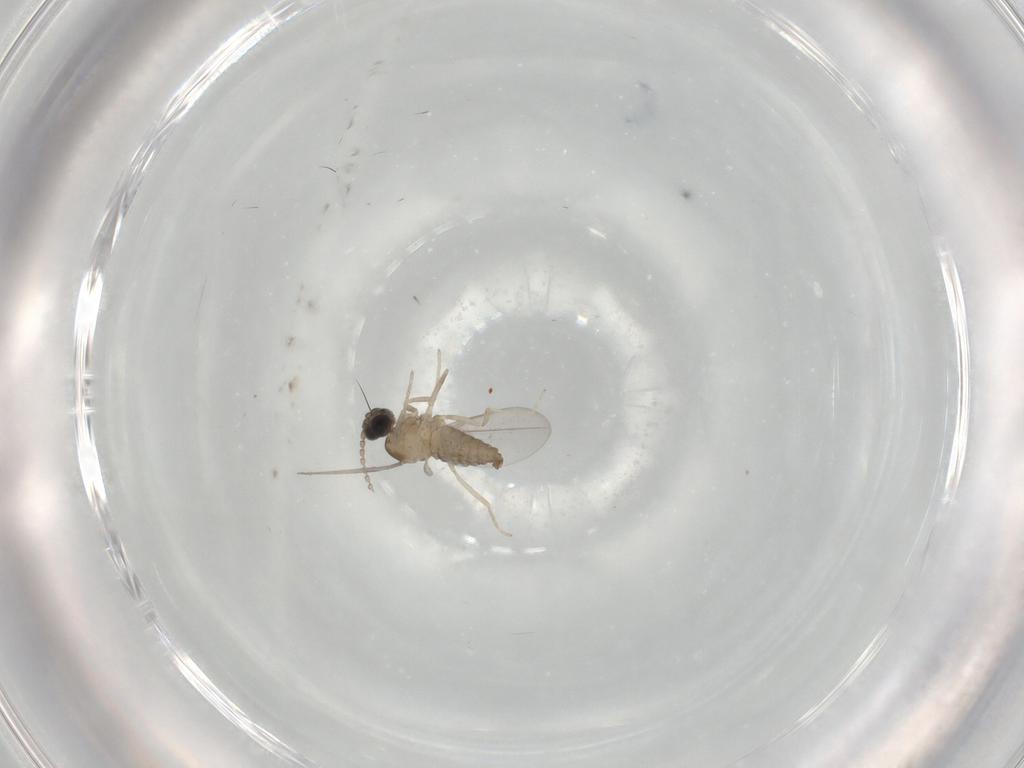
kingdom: Animalia
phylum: Arthropoda
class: Insecta
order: Diptera
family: Cecidomyiidae
